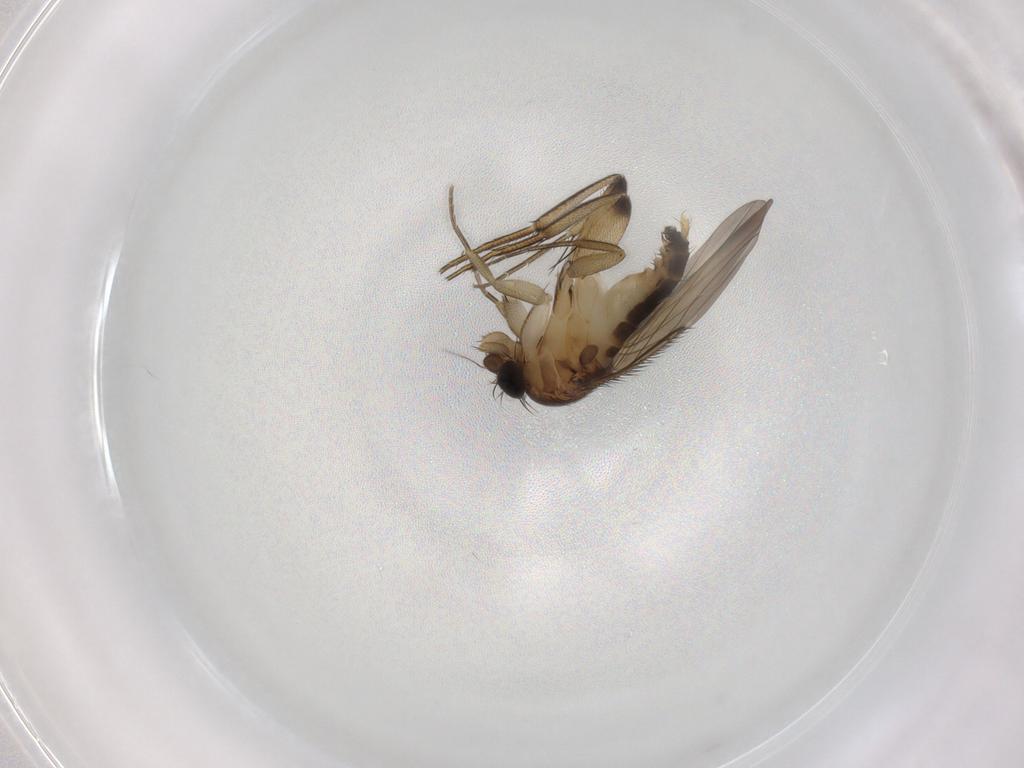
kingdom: Animalia
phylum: Arthropoda
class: Insecta
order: Diptera
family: Phoridae
